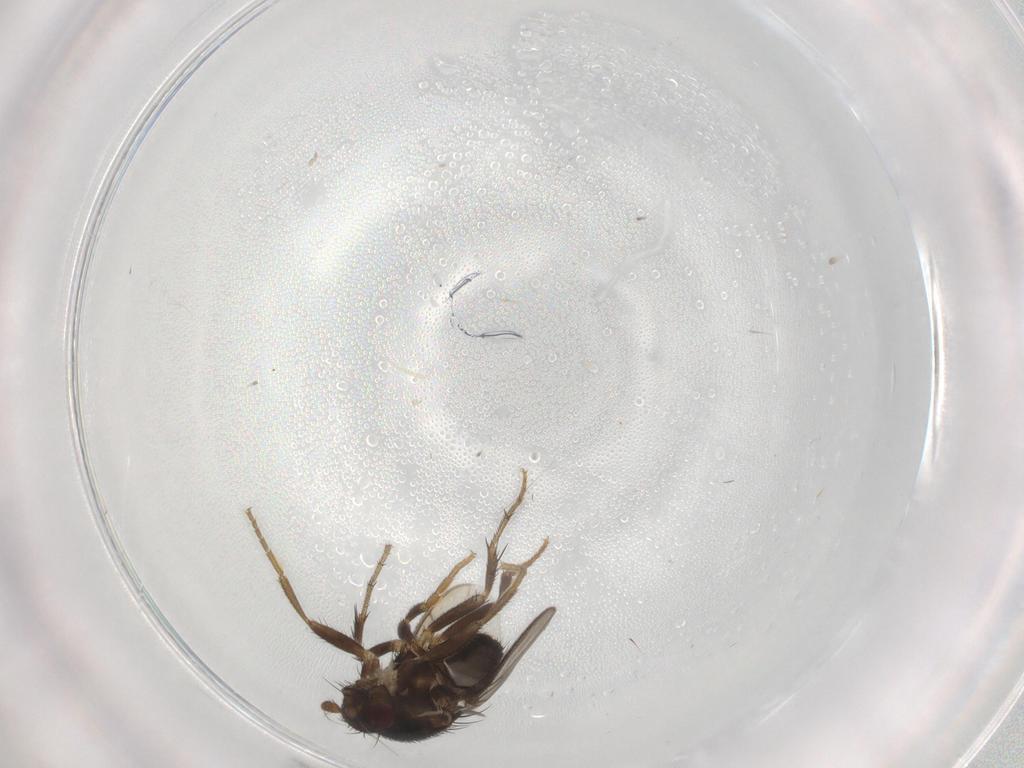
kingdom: Animalia
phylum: Arthropoda
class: Insecta
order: Diptera
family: Sphaeroceridae
